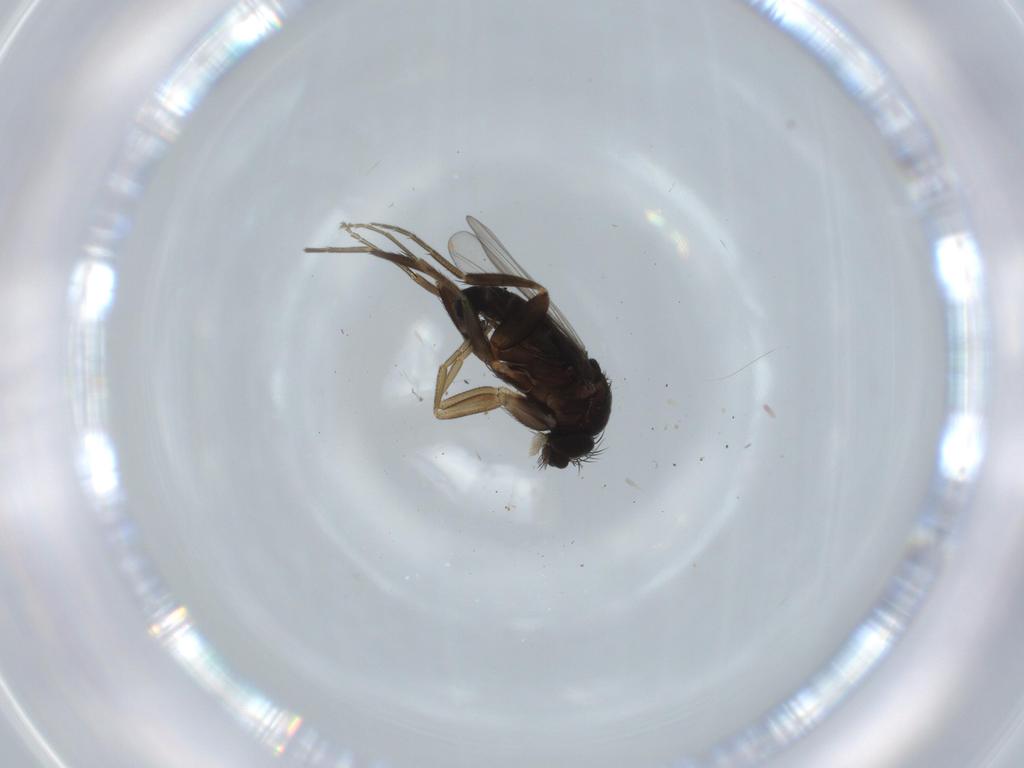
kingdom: Animalia
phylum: Arthropoda
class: Insecta
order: Diptera
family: Phoridae
